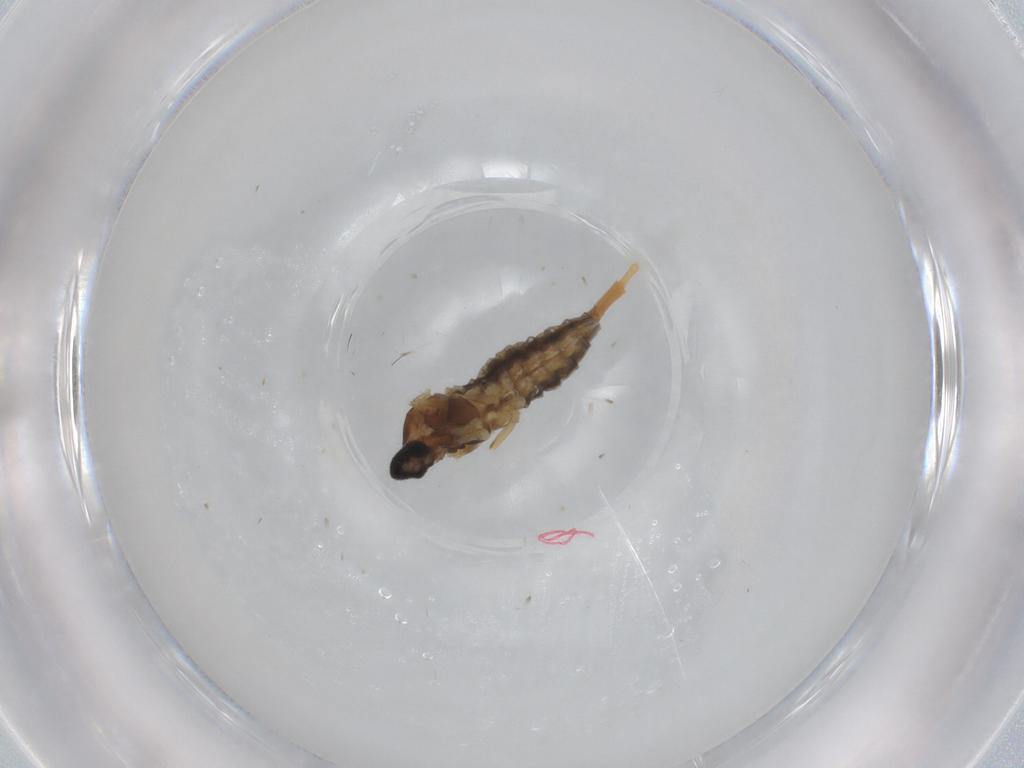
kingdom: Animalia
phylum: Arthropoda
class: Insecta
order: Diptera
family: Cecidomyiidae
